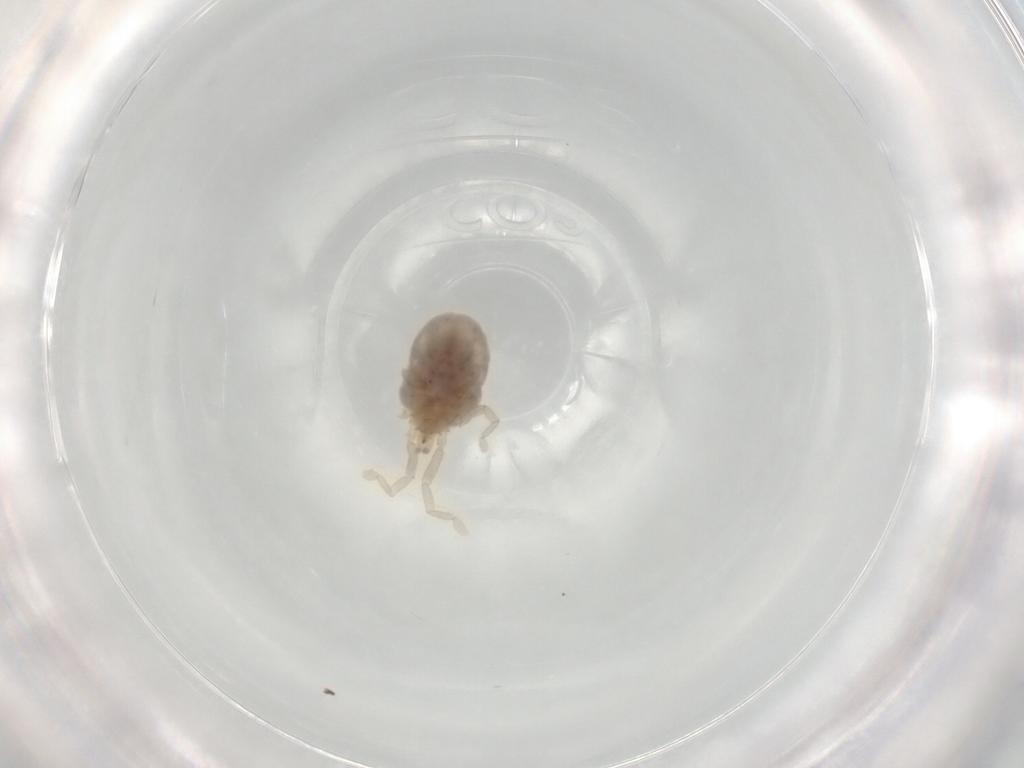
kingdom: Animalia
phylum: Arthropoda
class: Arachnida
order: Trombidiformes
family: Erythraeidae
